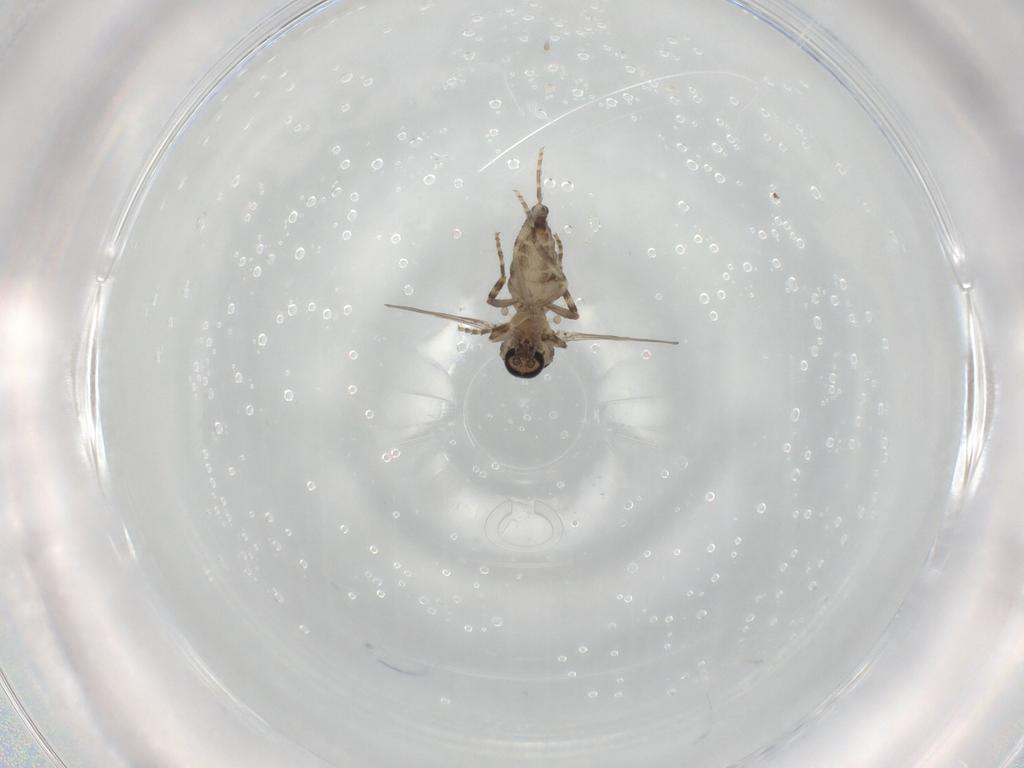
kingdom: Animalia
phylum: Arthropoda
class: Insecta
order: Diptera
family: Ceratopogonidae
